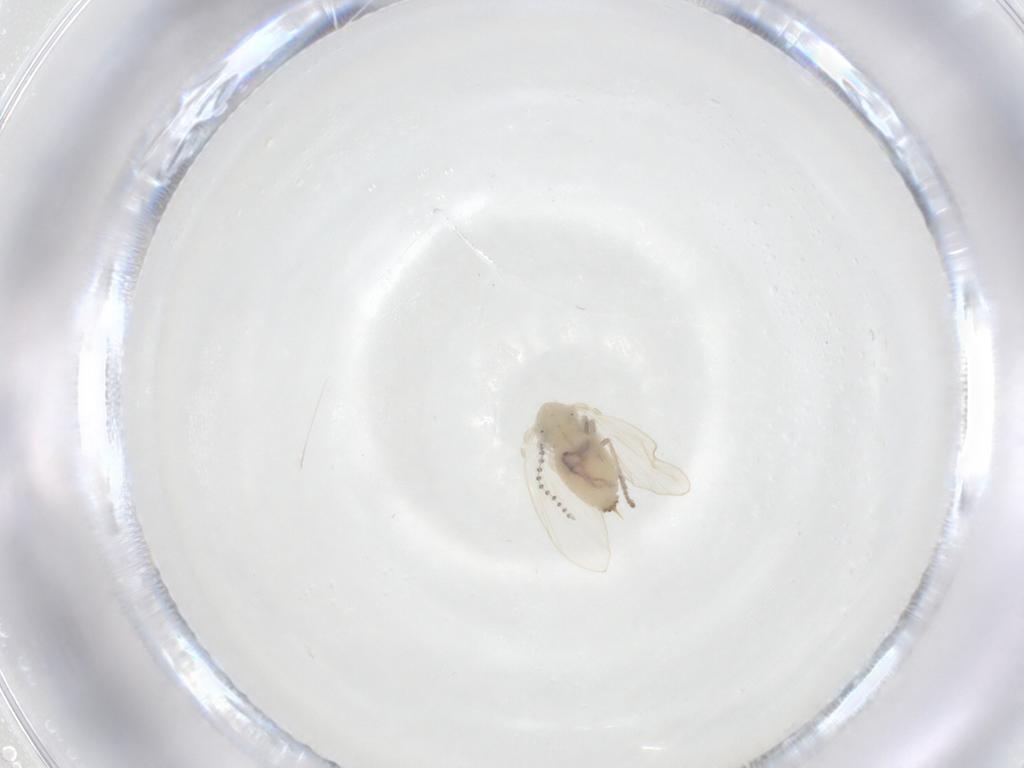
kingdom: Animalia
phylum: Arthropoda
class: Insecta
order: Diptera
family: Psychodidae
